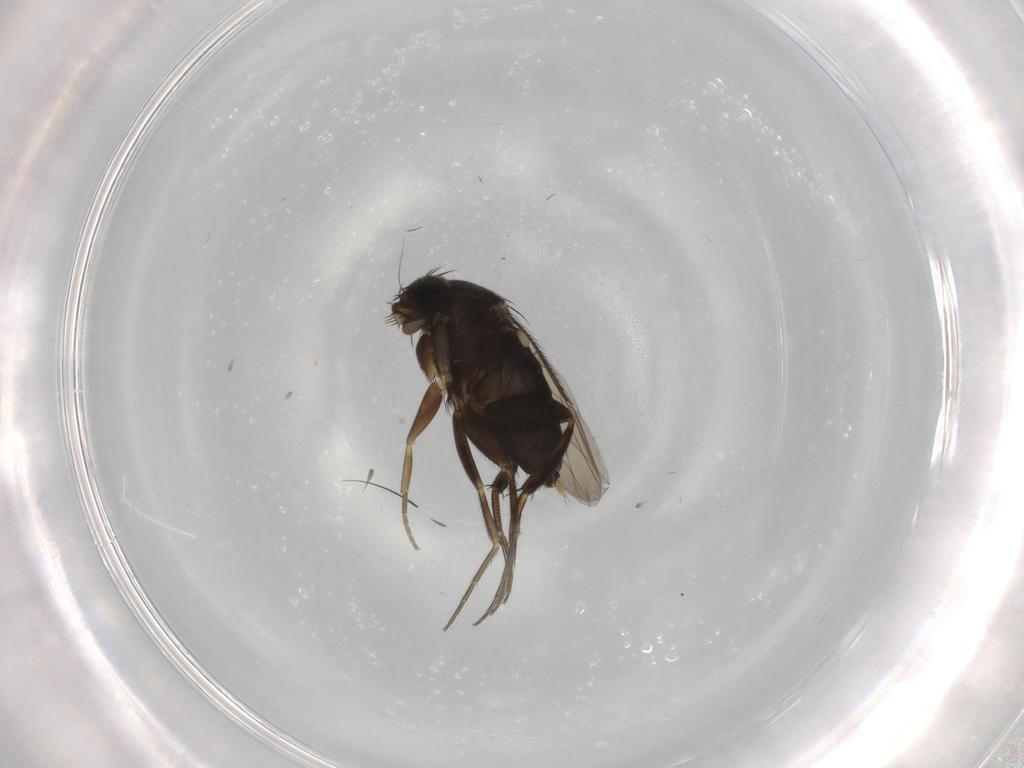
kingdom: Animalia
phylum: Arthropoda
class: Insecta
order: Diptera
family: Phoridae
